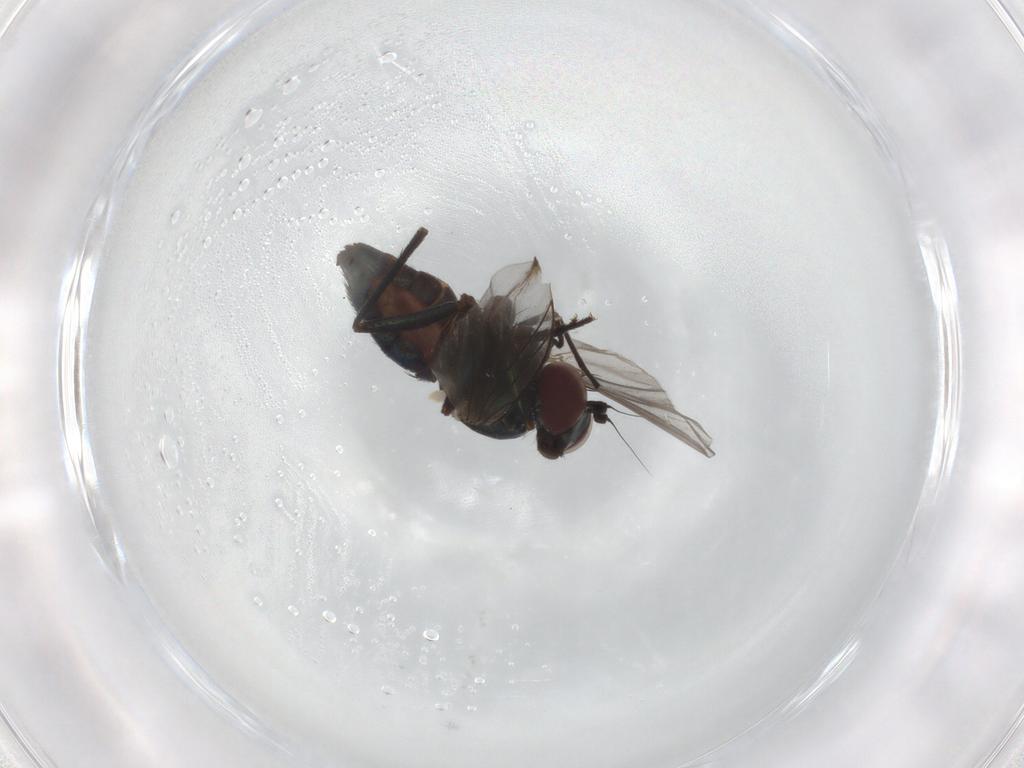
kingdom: Animalia
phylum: Arthropoda
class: Insecta
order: Diptera
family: Dolichopodidae
